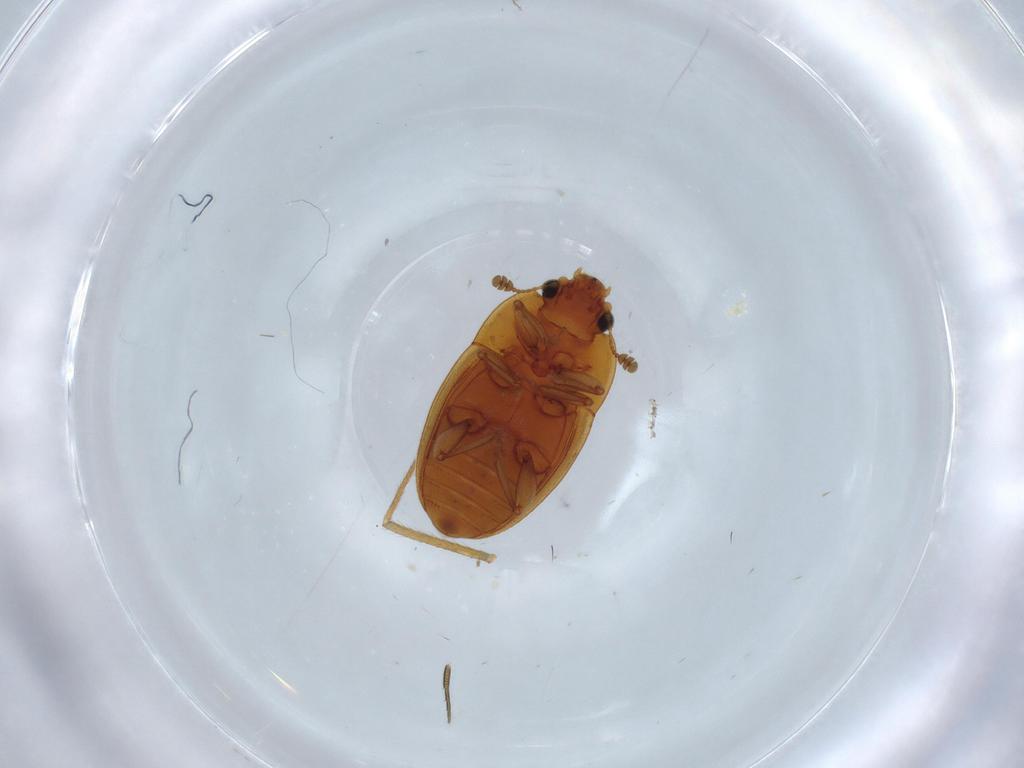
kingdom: Animalia
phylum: Arthropoda
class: Insecta
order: Coleoptera
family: Nitidulidae
